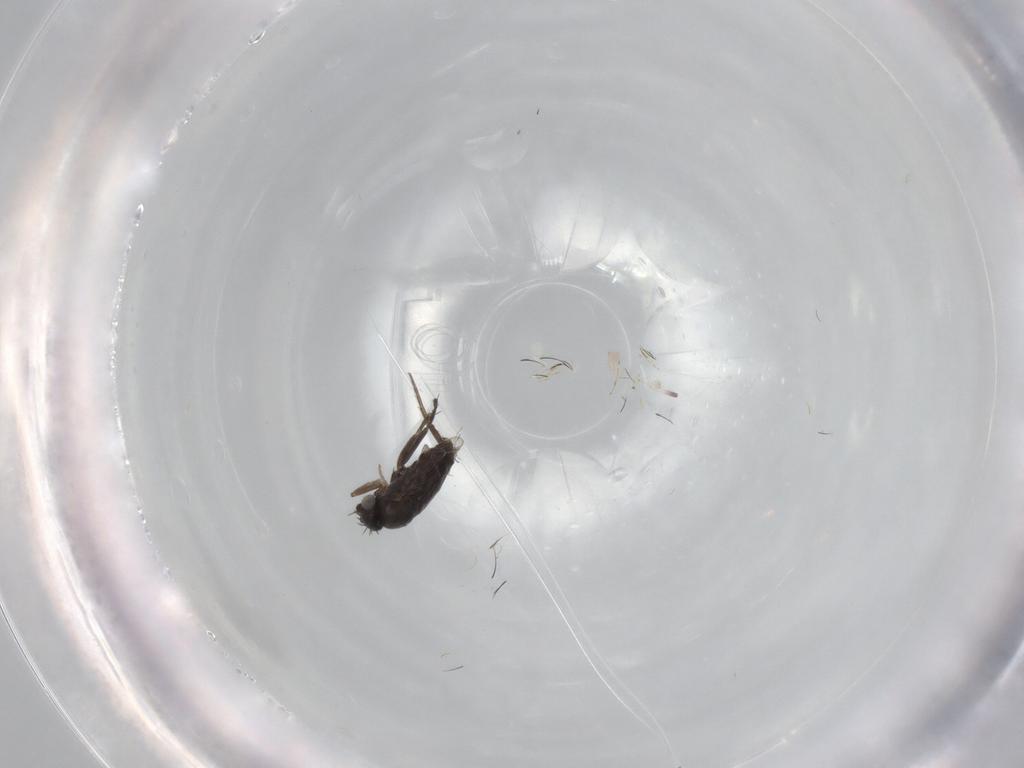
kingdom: Animalia
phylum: Arthropoda
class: Insecta
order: Diptera
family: Phoridae
